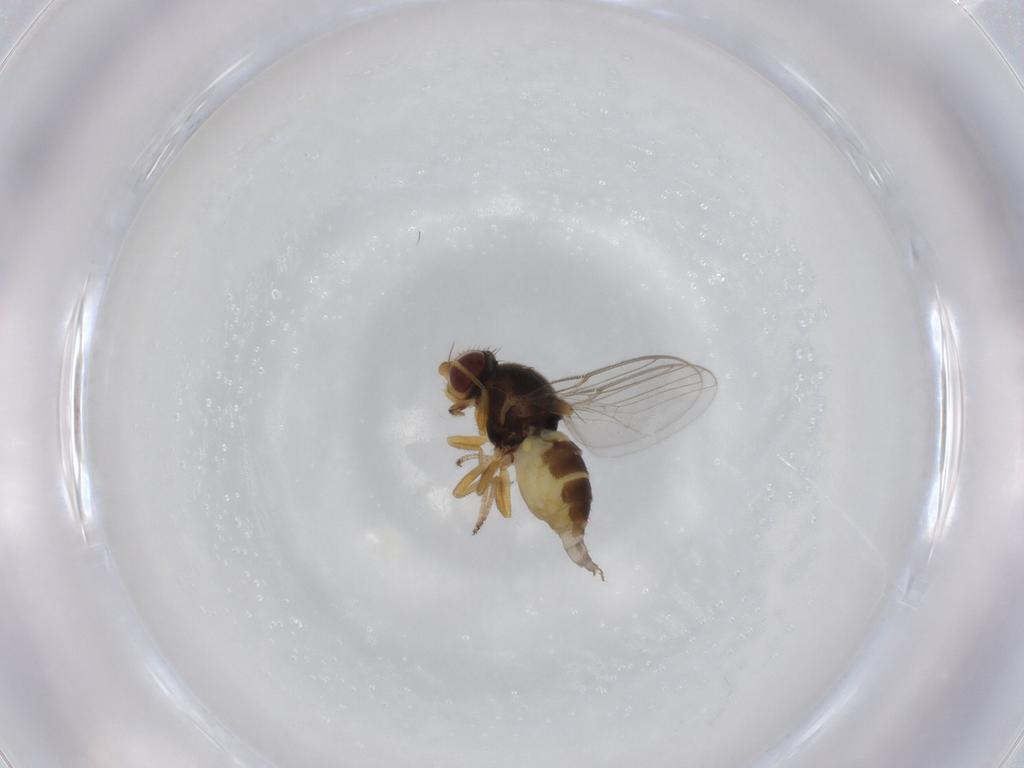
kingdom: Animalia
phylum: Arthropoda
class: Insecta
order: Diptera
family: Chloropidae
